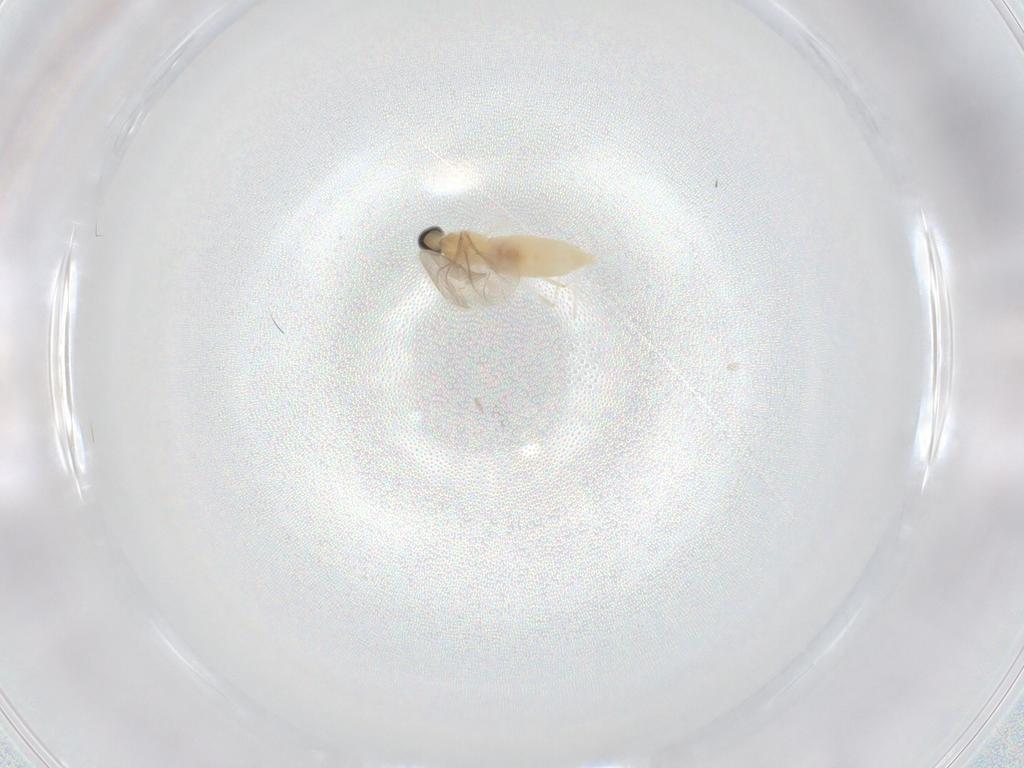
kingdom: Animalia
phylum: Arthropoda
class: Insecta
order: Diptera
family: Cecidomyiidae
